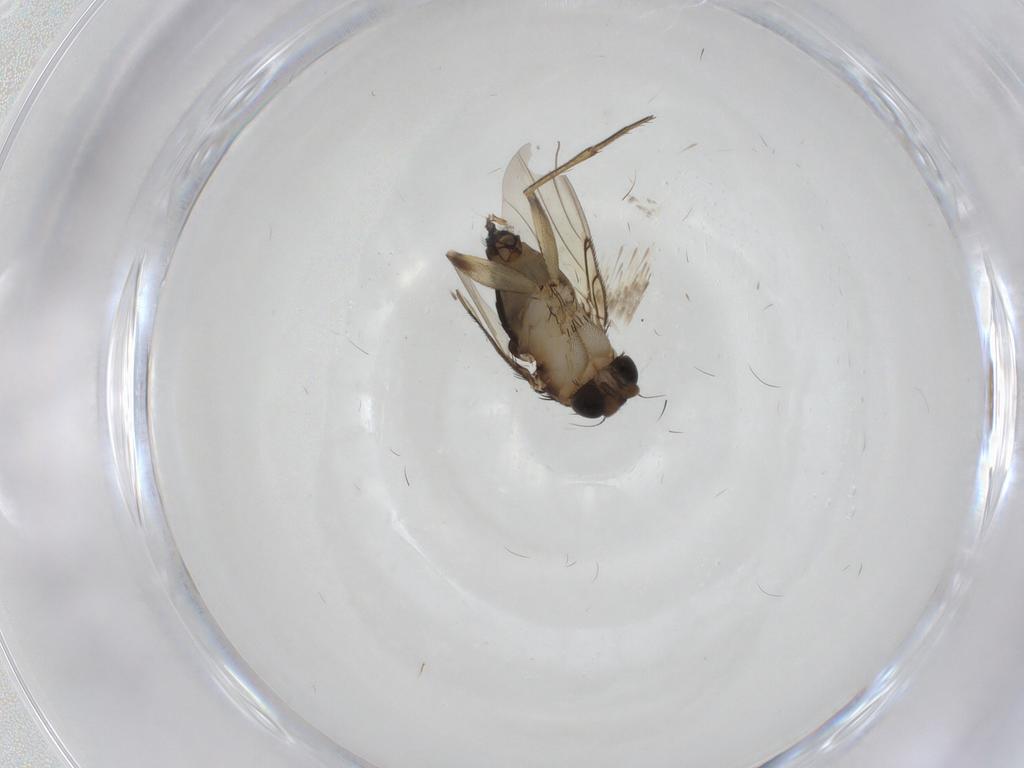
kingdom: Animalia
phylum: Arthropoda
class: Insecta
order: Diptera
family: Phoridae
